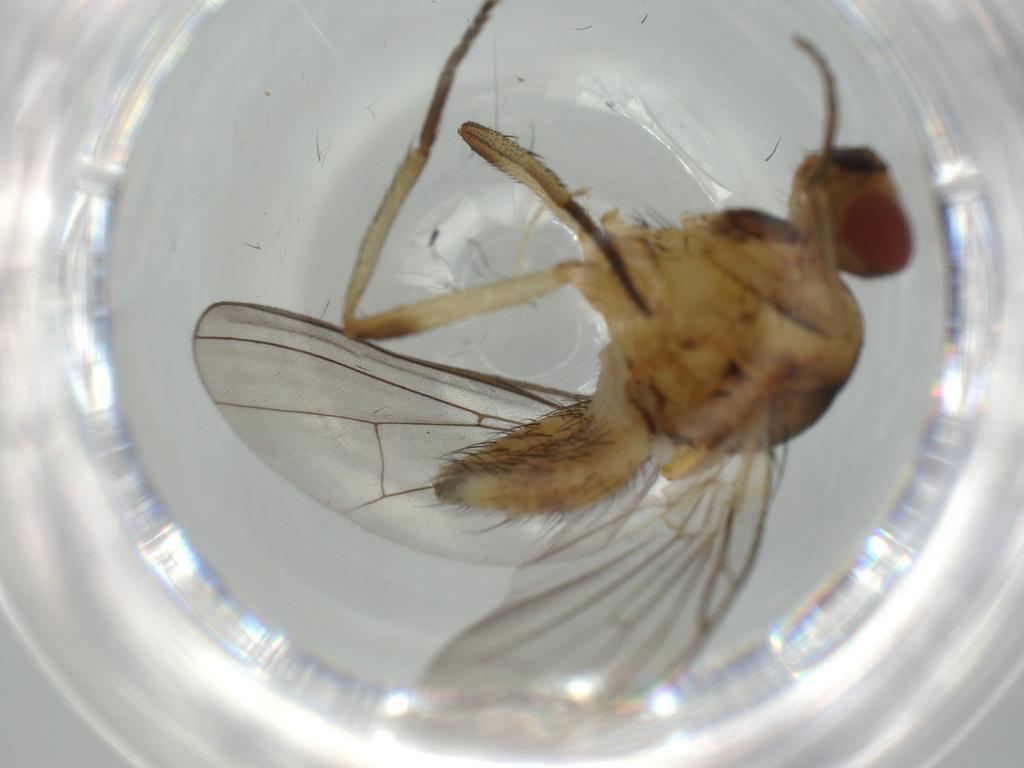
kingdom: Animalia
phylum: Arthropoda
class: Insecta
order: Diptera
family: Anthomyiidae
